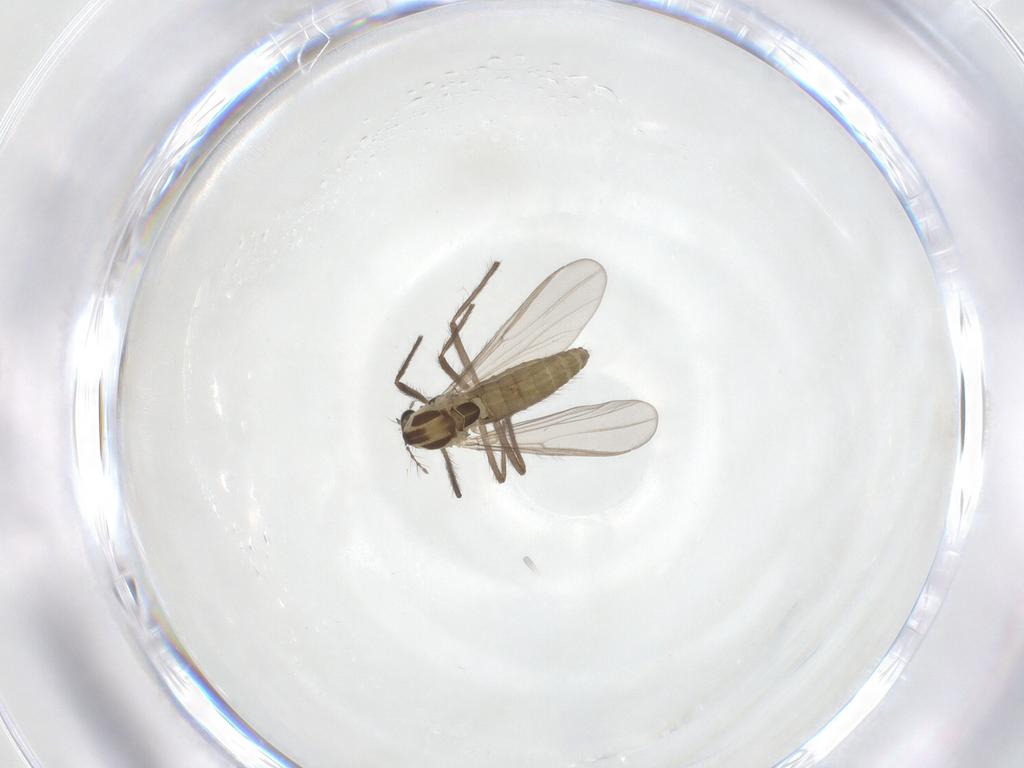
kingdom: Animalia
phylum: Arthropoda
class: Insecta
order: Diptera
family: Chironomidae
